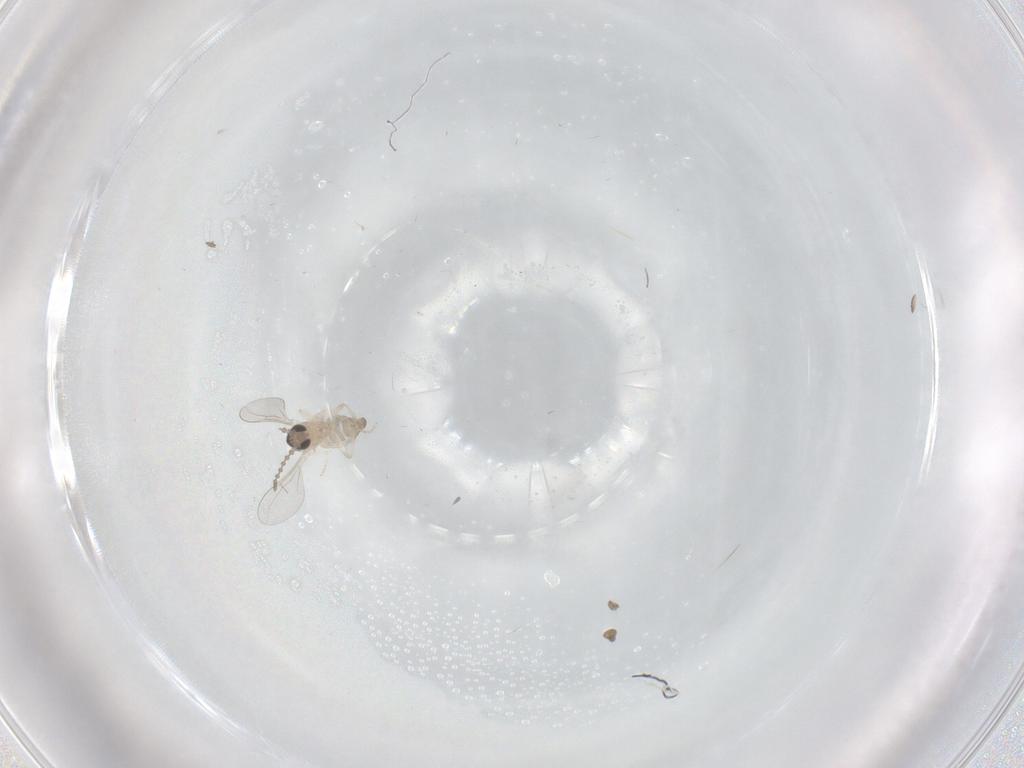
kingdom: Animalia
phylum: Arthropoda
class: Insecta
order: Diptera
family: Cecidomyiidae
